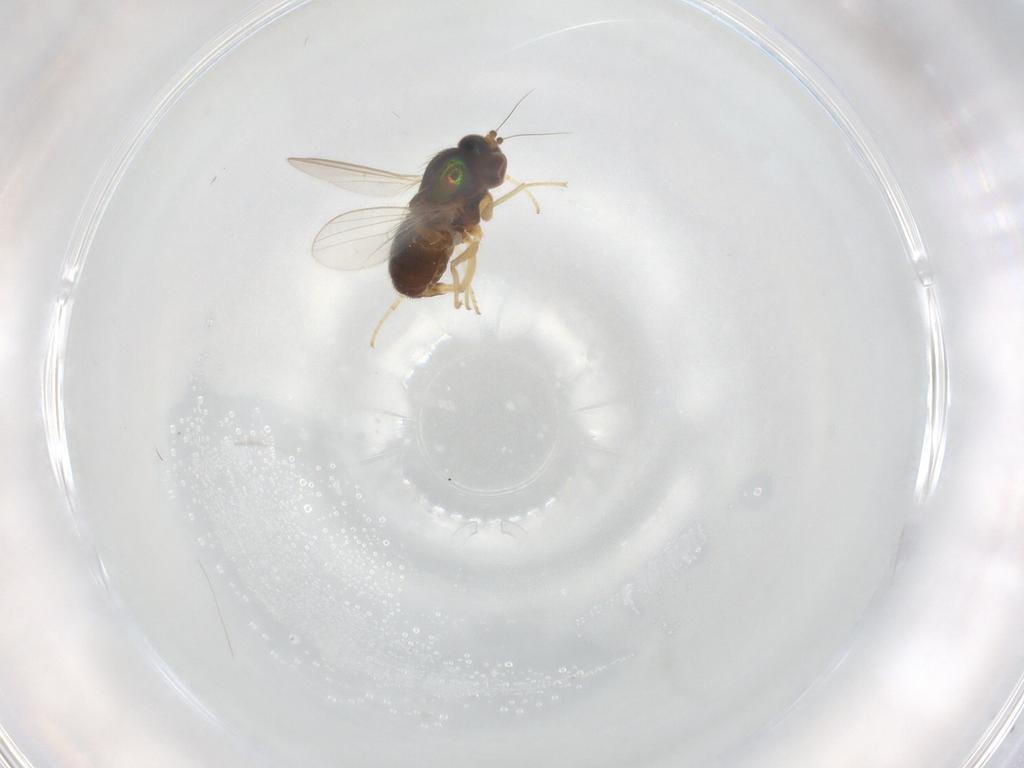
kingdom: Animalia
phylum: Arthropoda
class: Insecta
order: Diptera
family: Dolichopodidae
